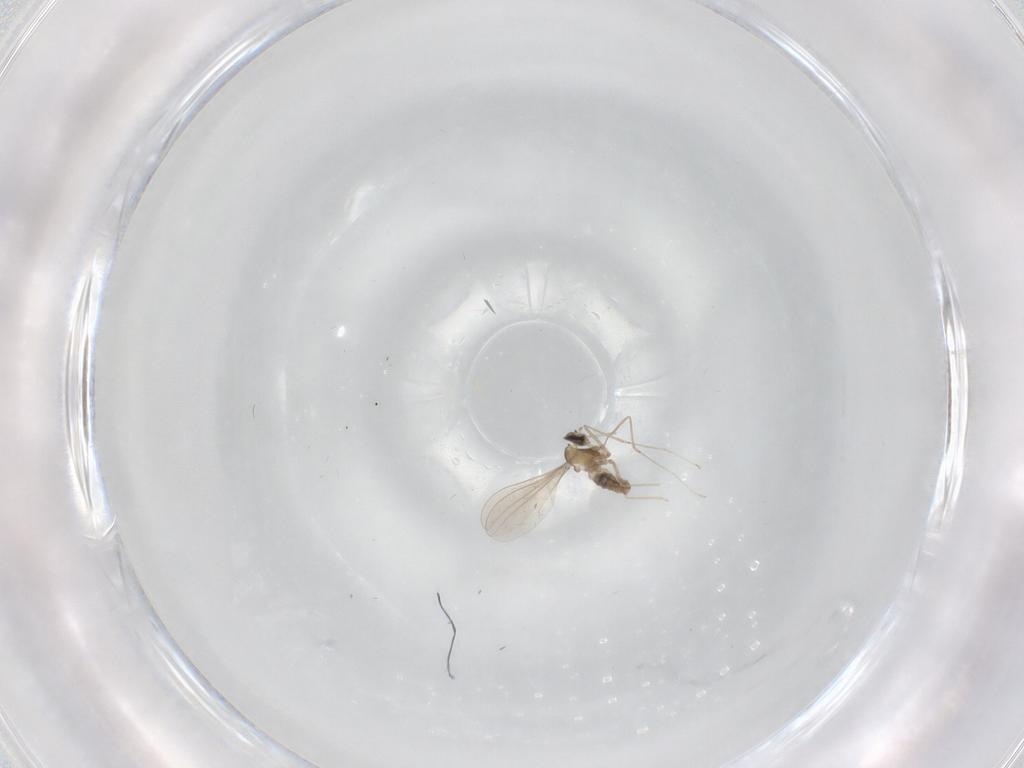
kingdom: Animalia
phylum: Arthropoda
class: Insecta
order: Diptera
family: Cecidomyiidae
